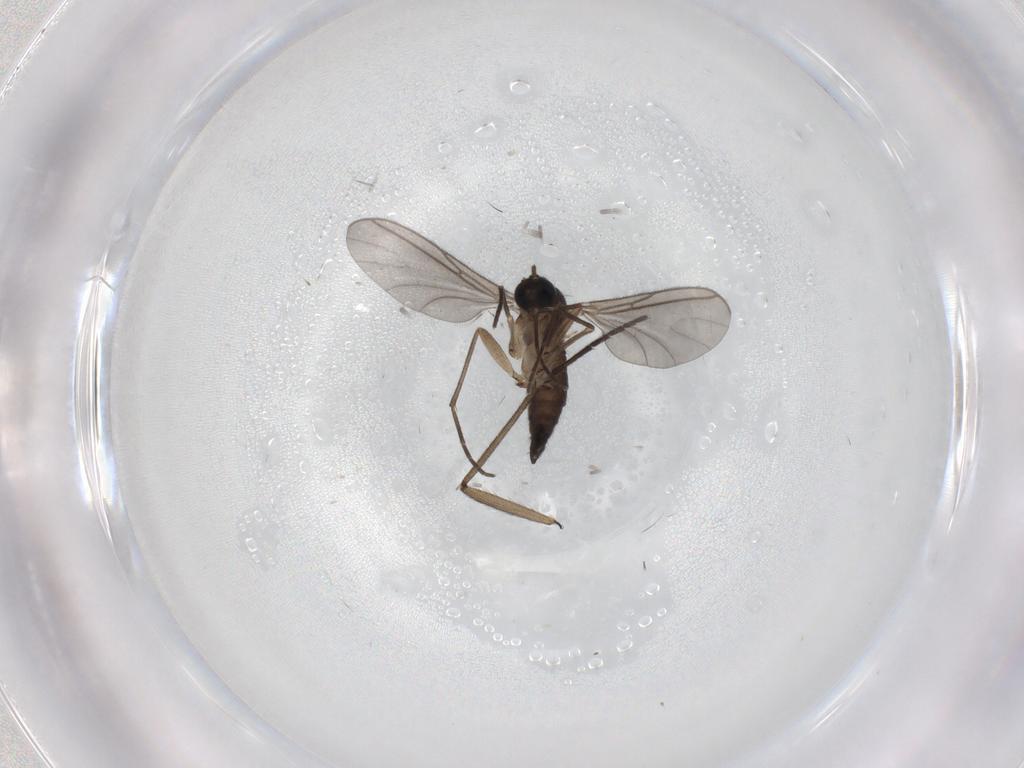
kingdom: Animalia
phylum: Arthropoda
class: Insecta
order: Diptera
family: Sciaridae
